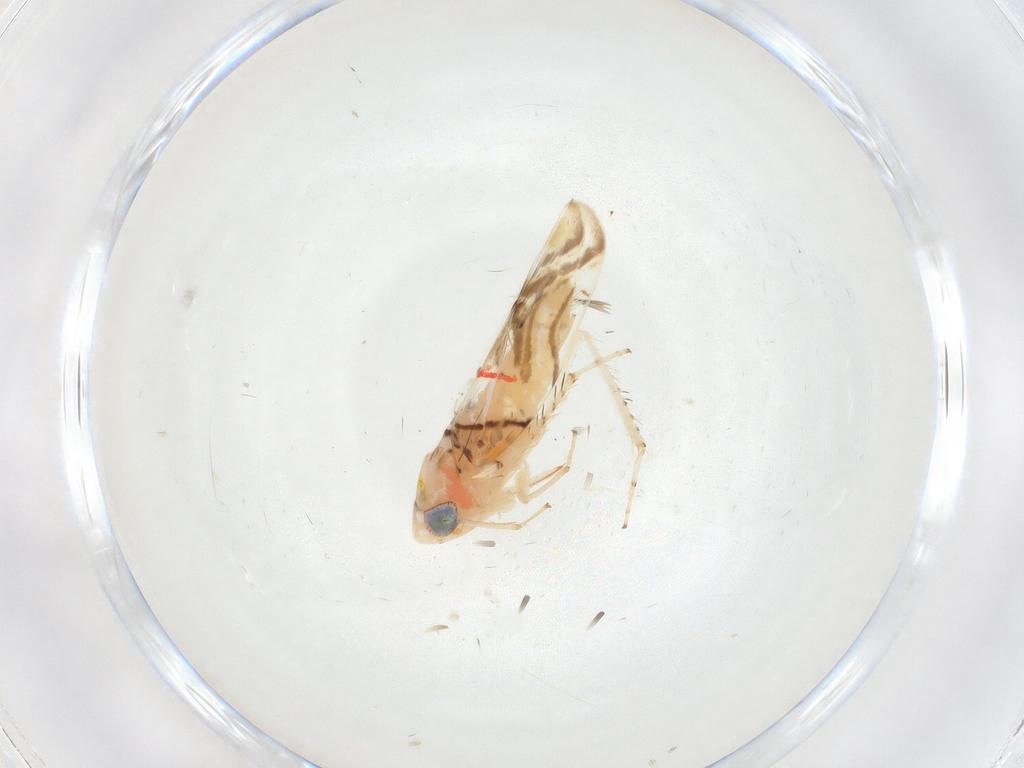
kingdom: Animalia
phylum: Arthropoda
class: Insecta
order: Hemiptera
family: Cicadellidae
